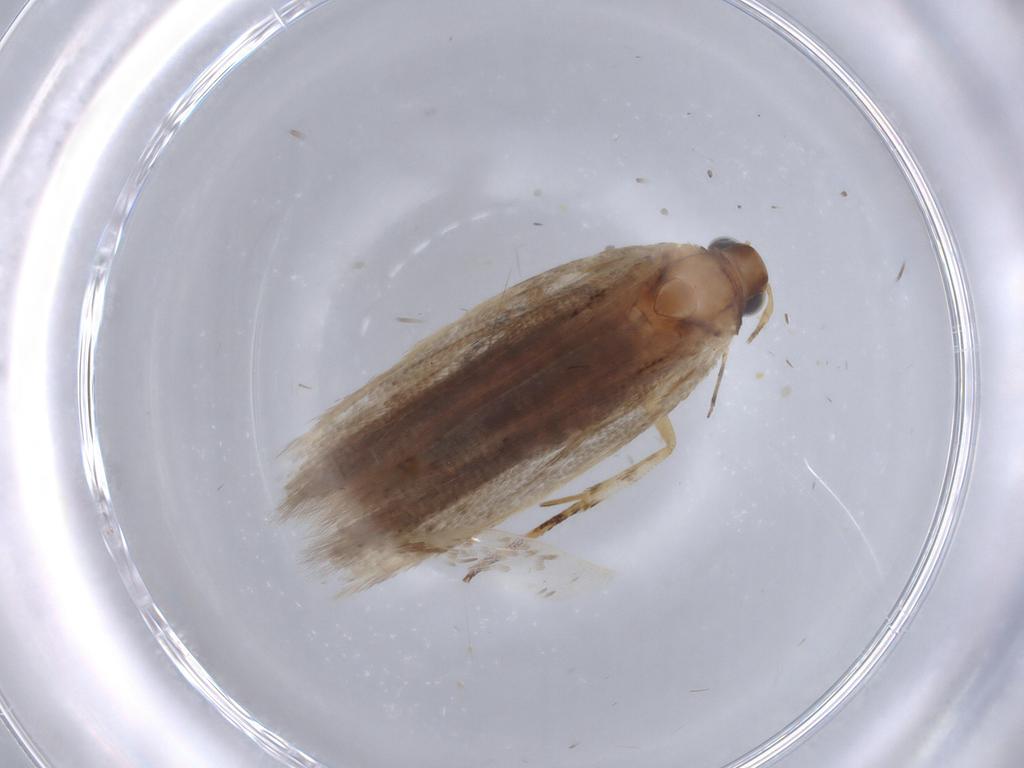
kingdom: Animalia
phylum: Arthropoda
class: Insecta
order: Lepidoptera
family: Gelechiidae
